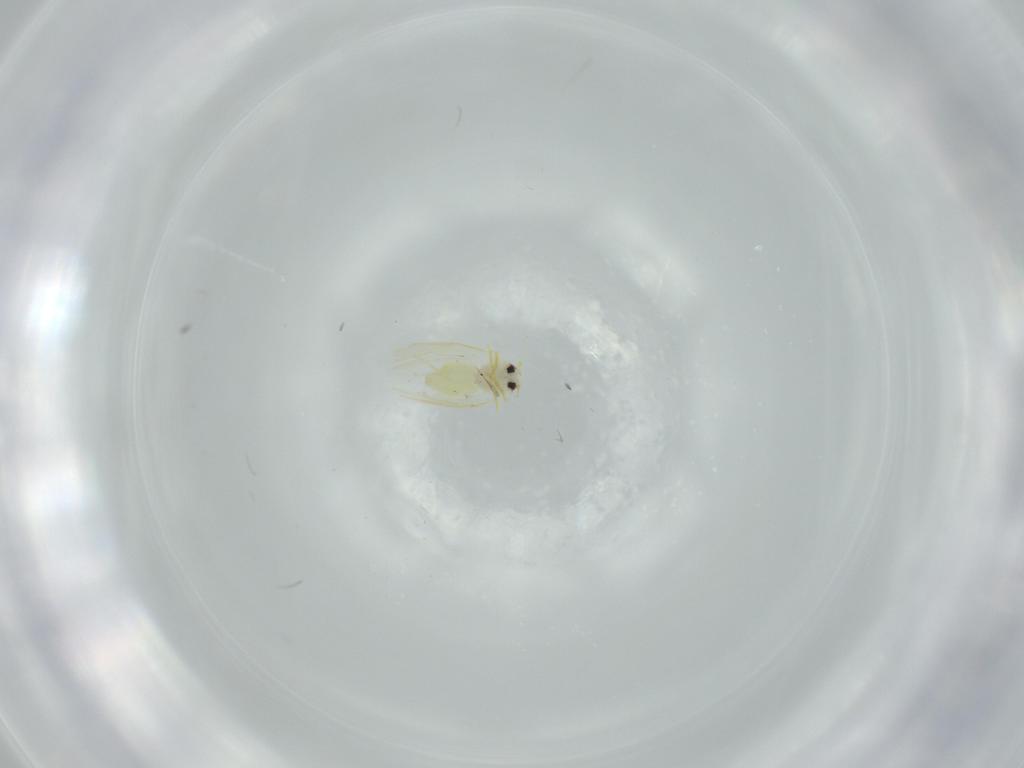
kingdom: Animalia
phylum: Arthropoda
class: Insecta
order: Hemiptera
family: Aleyrodidae
